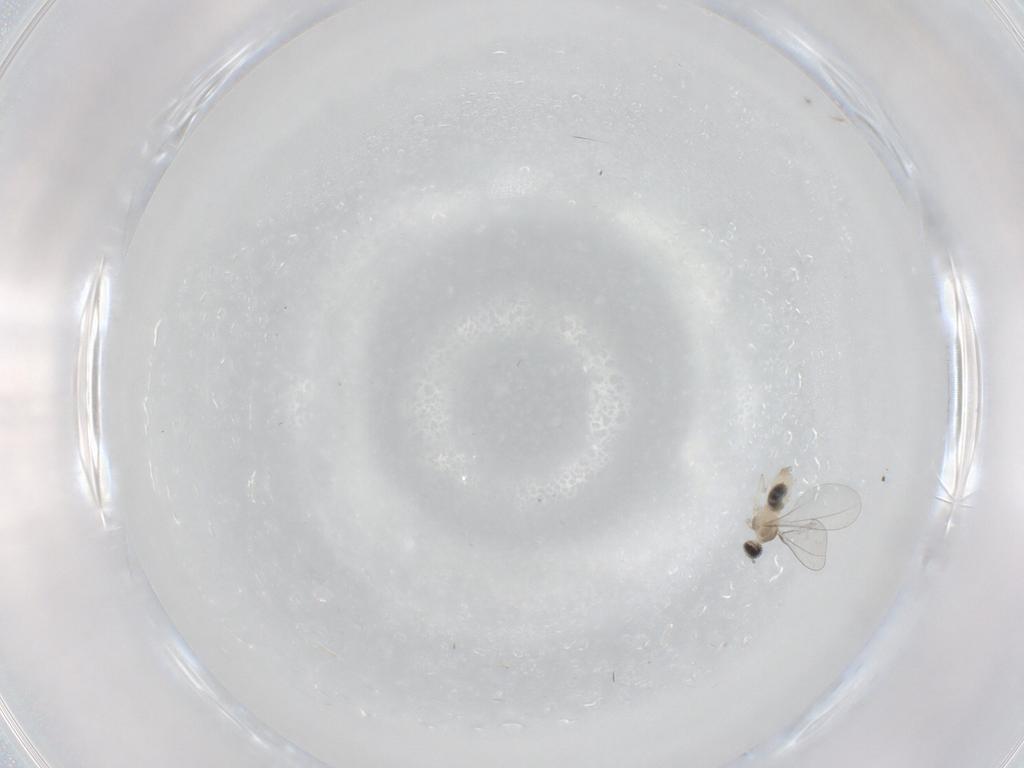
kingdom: Animalia
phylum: Arthropoda
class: Insecta
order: Diptera
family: Cecidomyiidae
